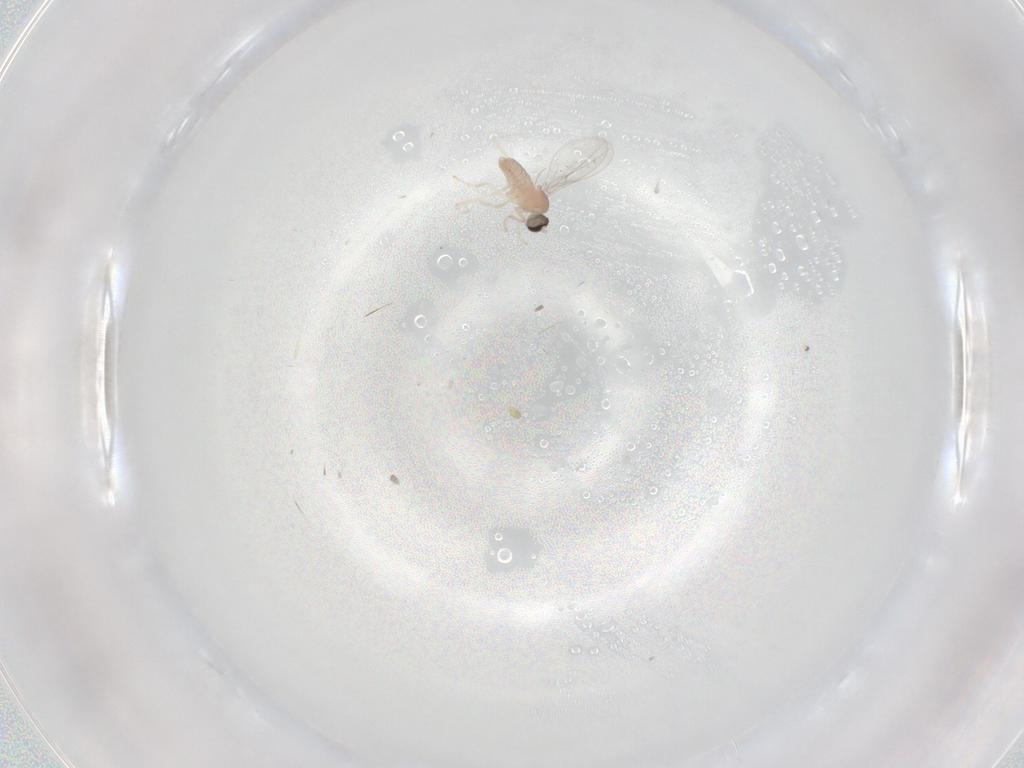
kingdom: Animalia
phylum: Arthropoda
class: Insecta
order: Diptera
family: Cecidomyiidae
